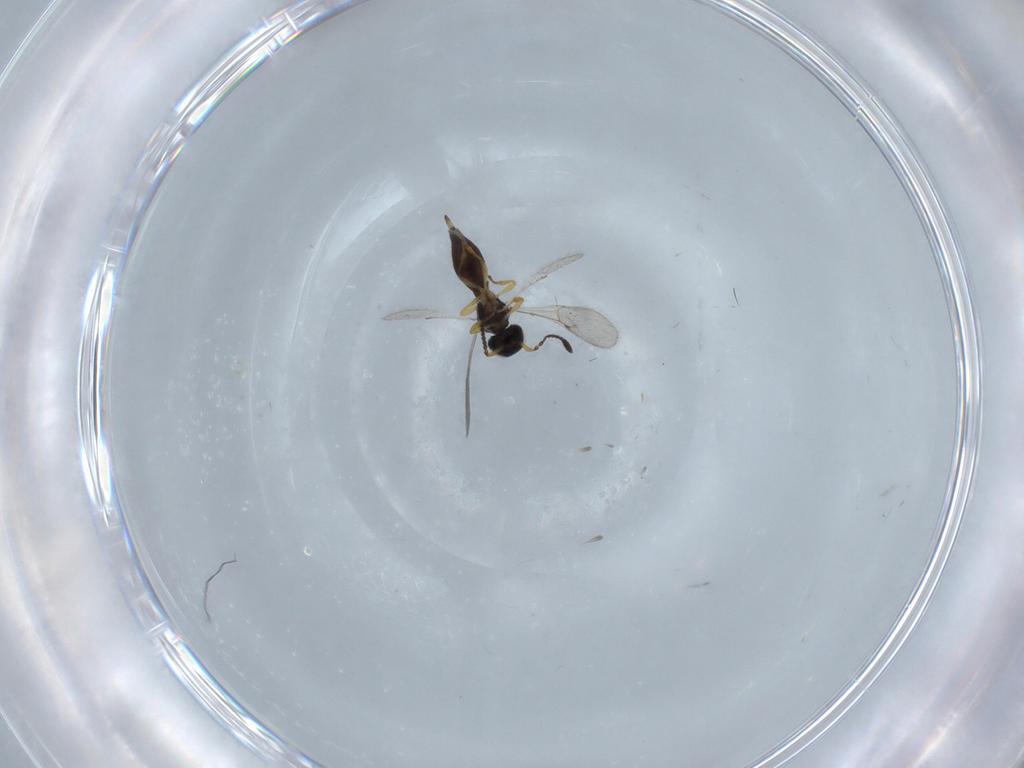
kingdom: Animalia
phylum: Arthropoda
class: Insecta
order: Hymenoptera
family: Scelionidae
